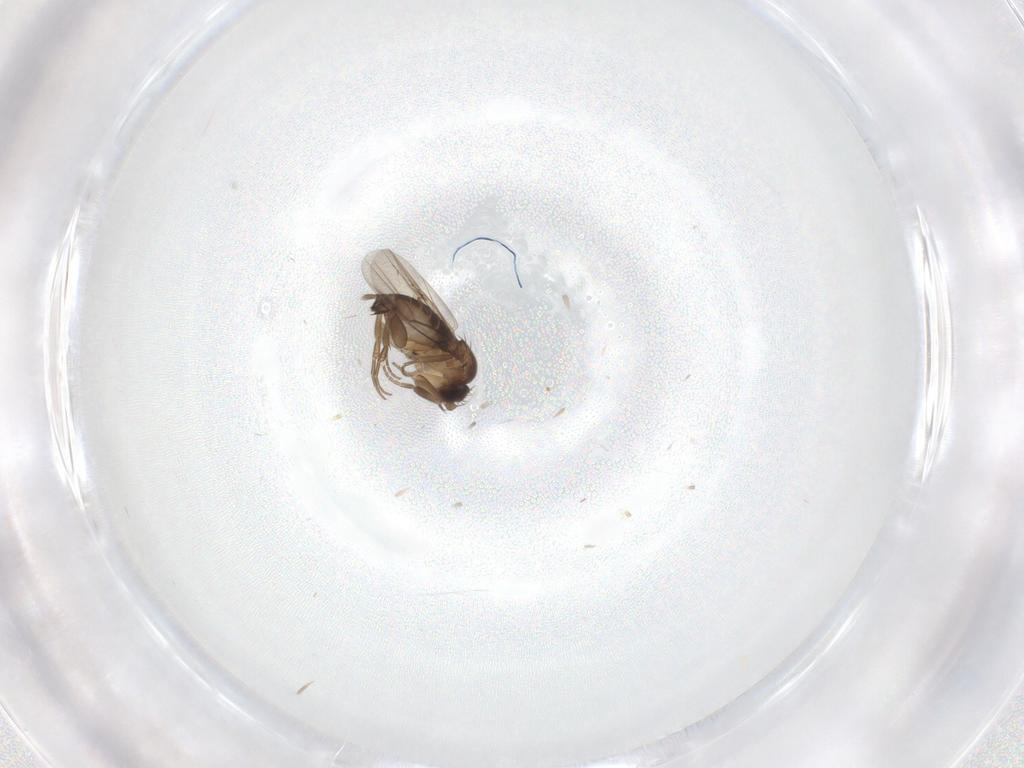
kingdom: Animalia
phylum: Arthropoda
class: Insecta
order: Diptera
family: Phoridae
